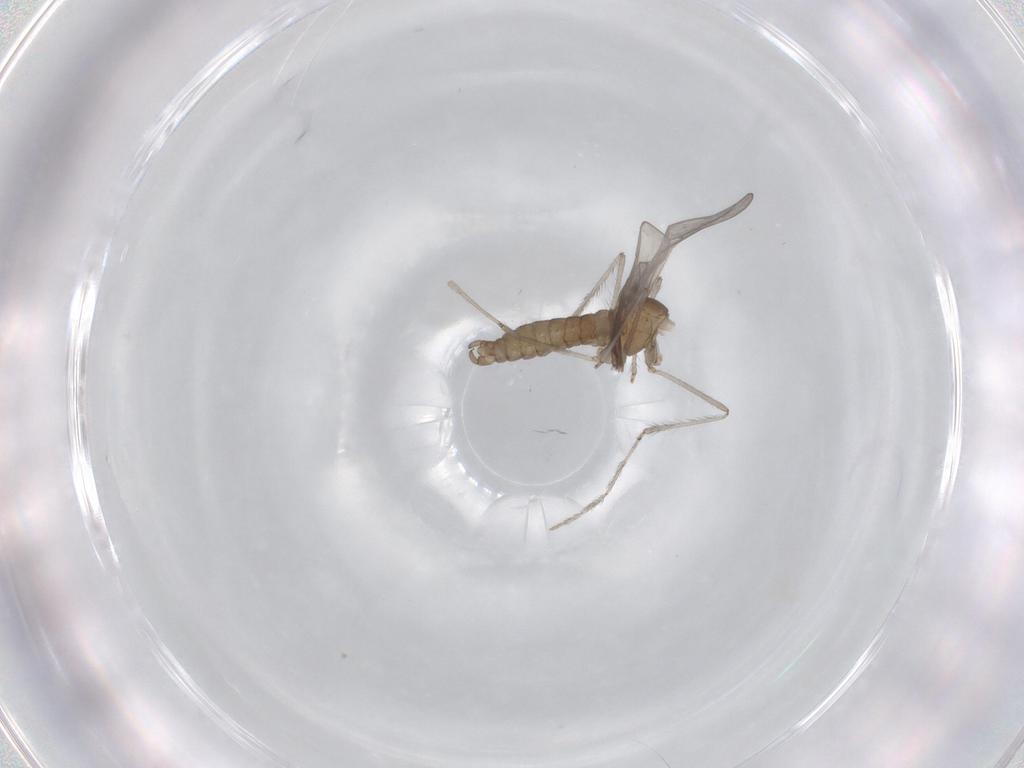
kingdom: Animalia
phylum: Arthropoda
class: Insecta
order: Diptera
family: Cecidomyiidae
